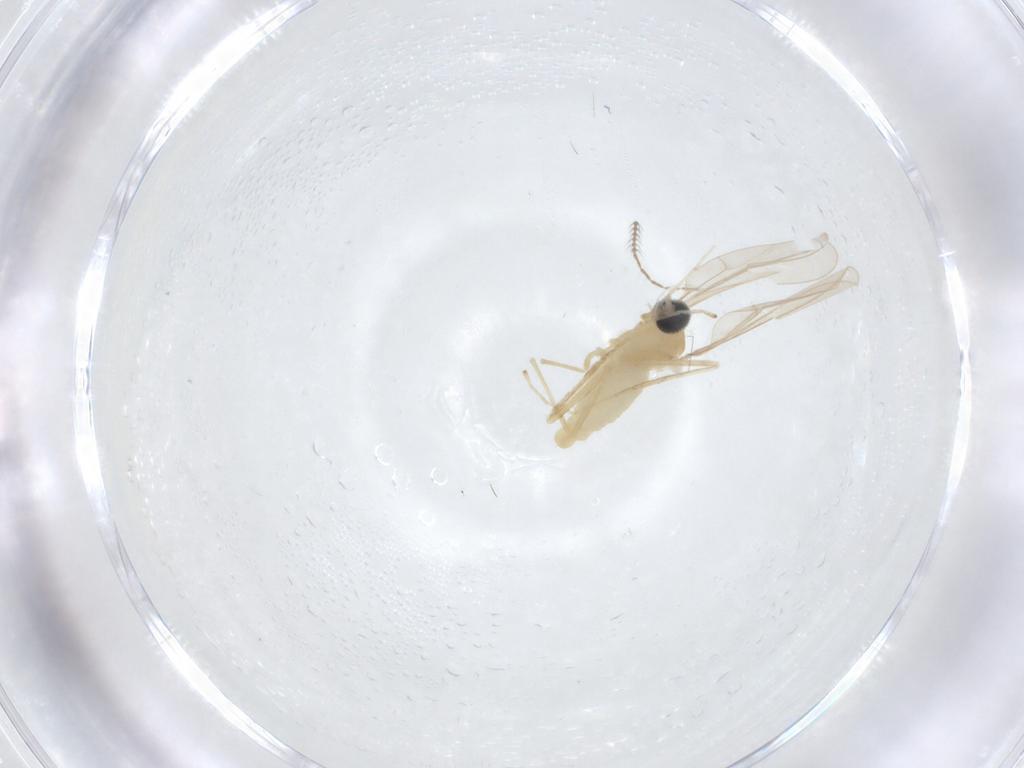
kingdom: Animalia
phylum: Arthropoda
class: Insecta
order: Diptera
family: Cecidomyiidae
